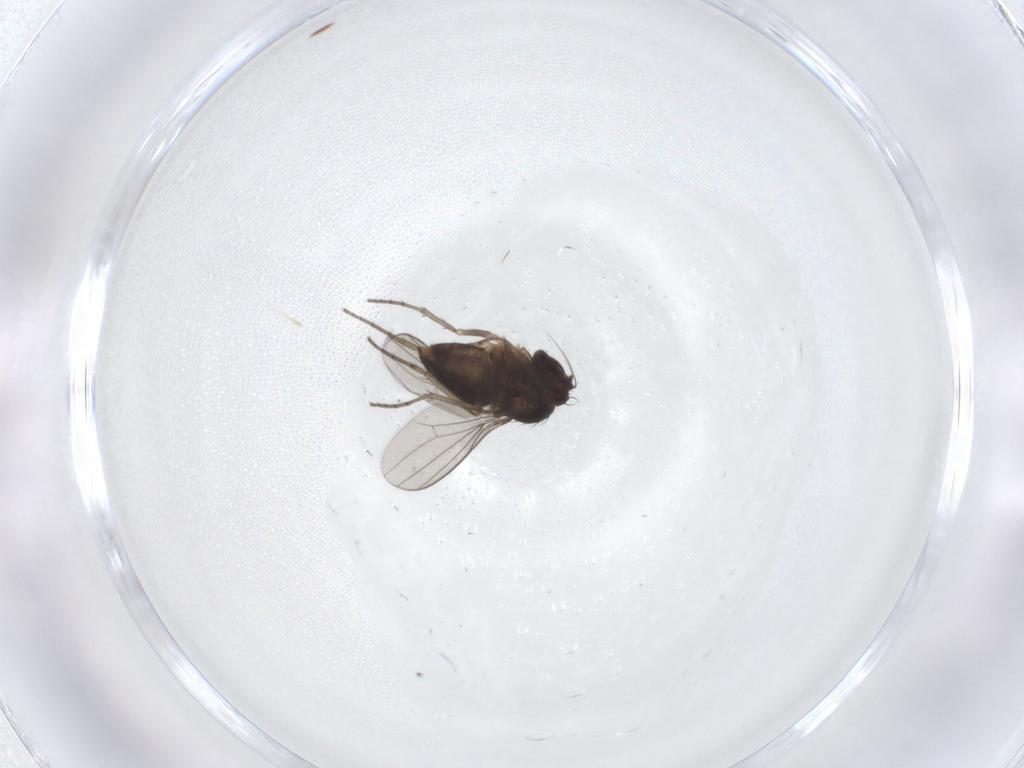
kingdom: Animalia
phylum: Arthropoda
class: Insecta
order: Diptera
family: Dolichopodidae
